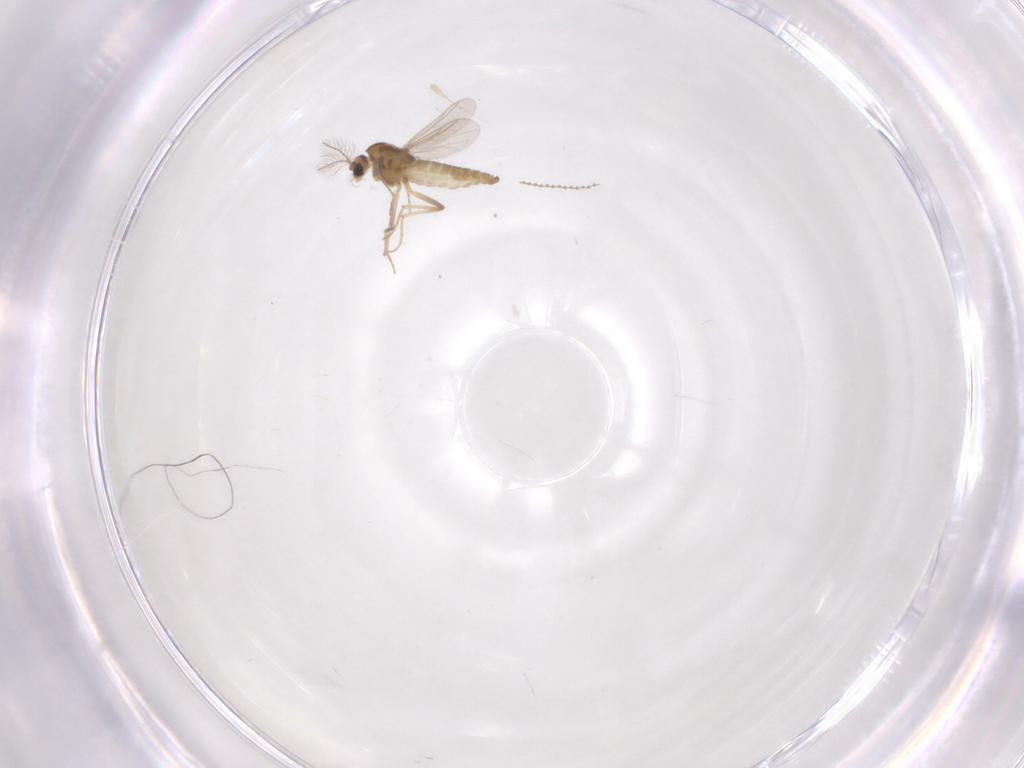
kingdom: Animalia
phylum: Arthropoda
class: Insecta
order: Diptera
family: Chironomidae
